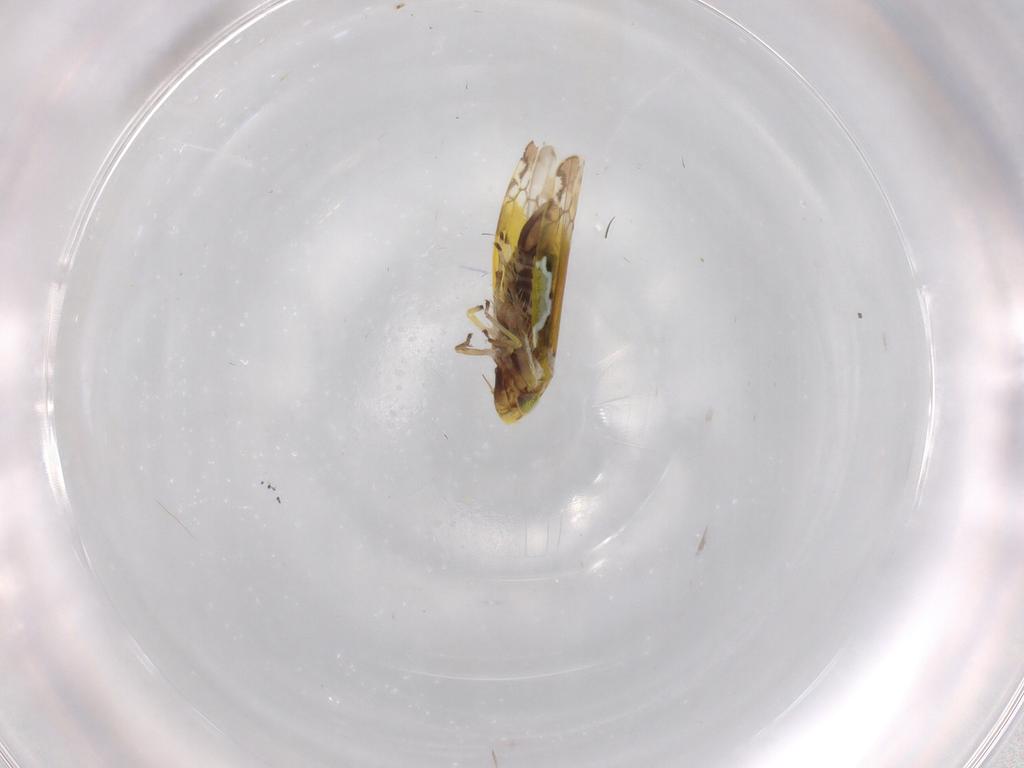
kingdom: Animalia
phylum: Arthropoda
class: Insecta
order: Hemiptera
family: Cicadellidae
